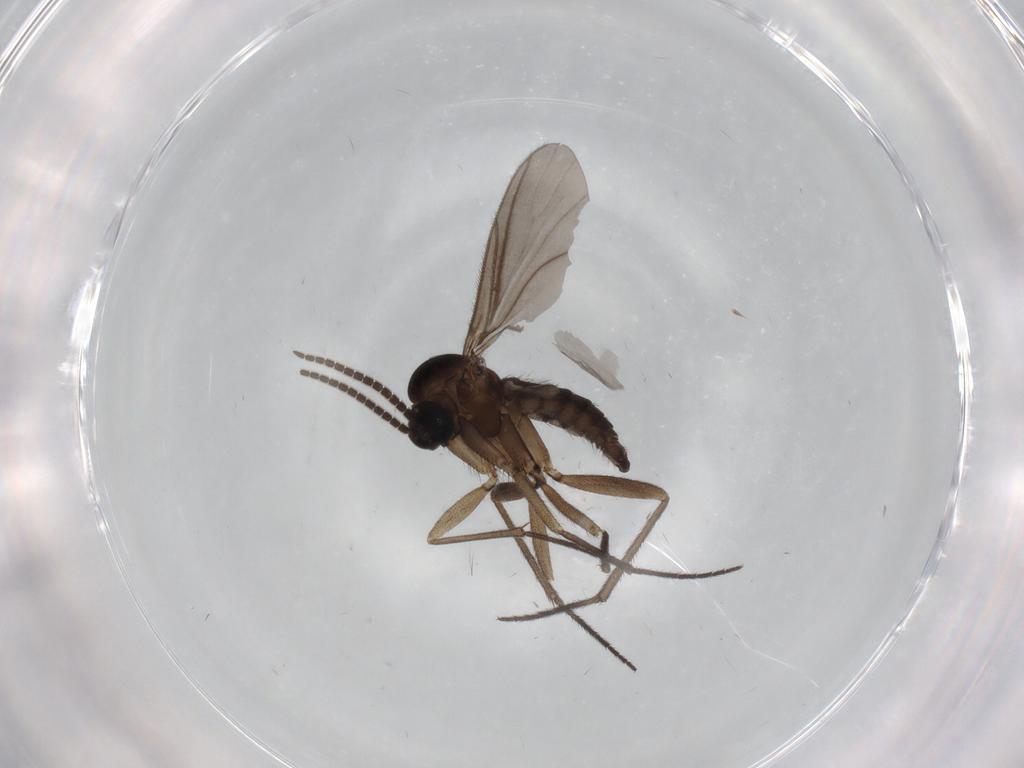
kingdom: Animalia
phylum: Arthropoda
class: Insecta
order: Diptera
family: Sciaridae
